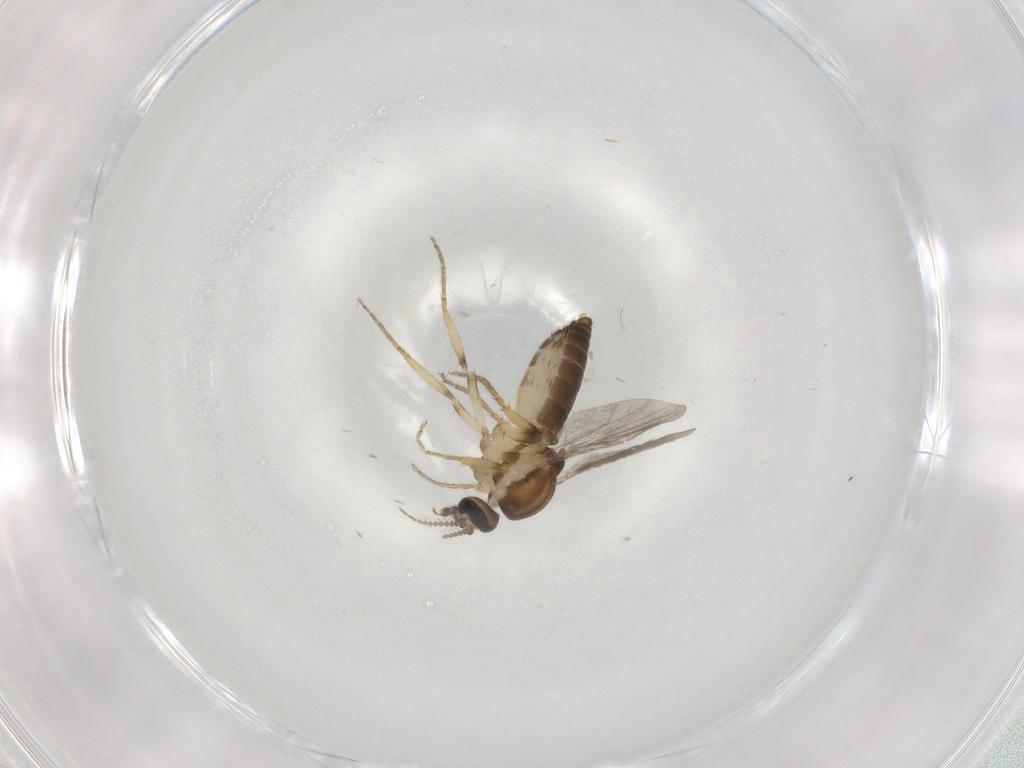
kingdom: Animalia
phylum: Arthropoda
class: Insecta
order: Diptera
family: Ceratopogonidae
